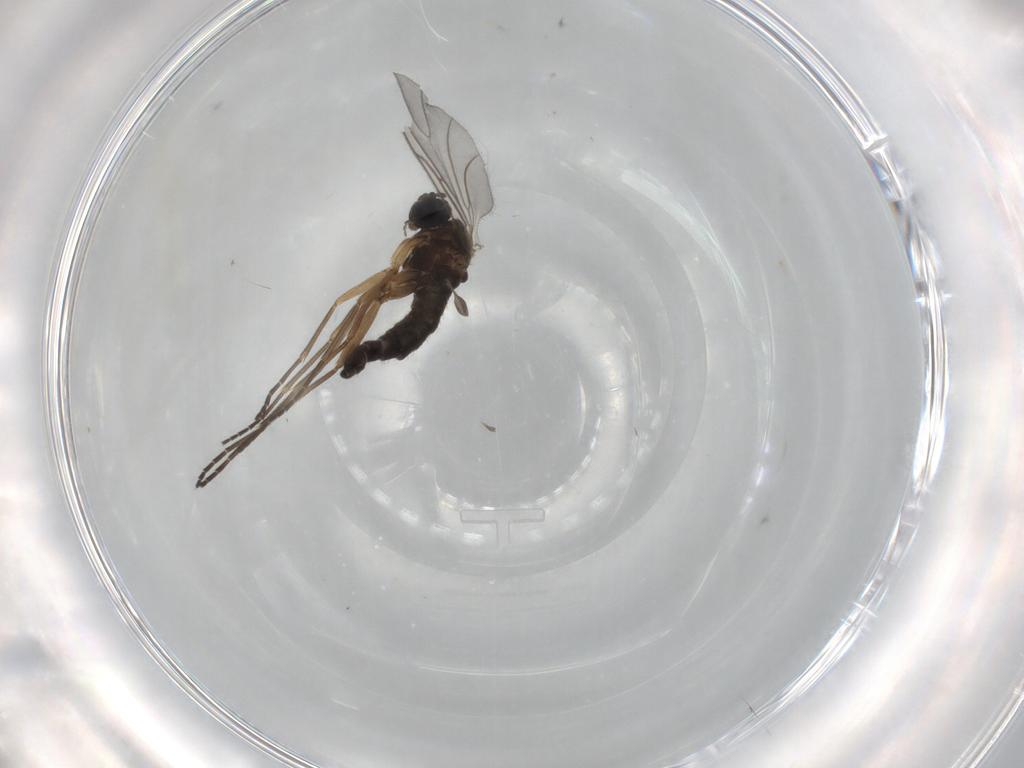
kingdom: Animalia
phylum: Arthropoda
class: Insecta
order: Diptera
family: Sciaridae
